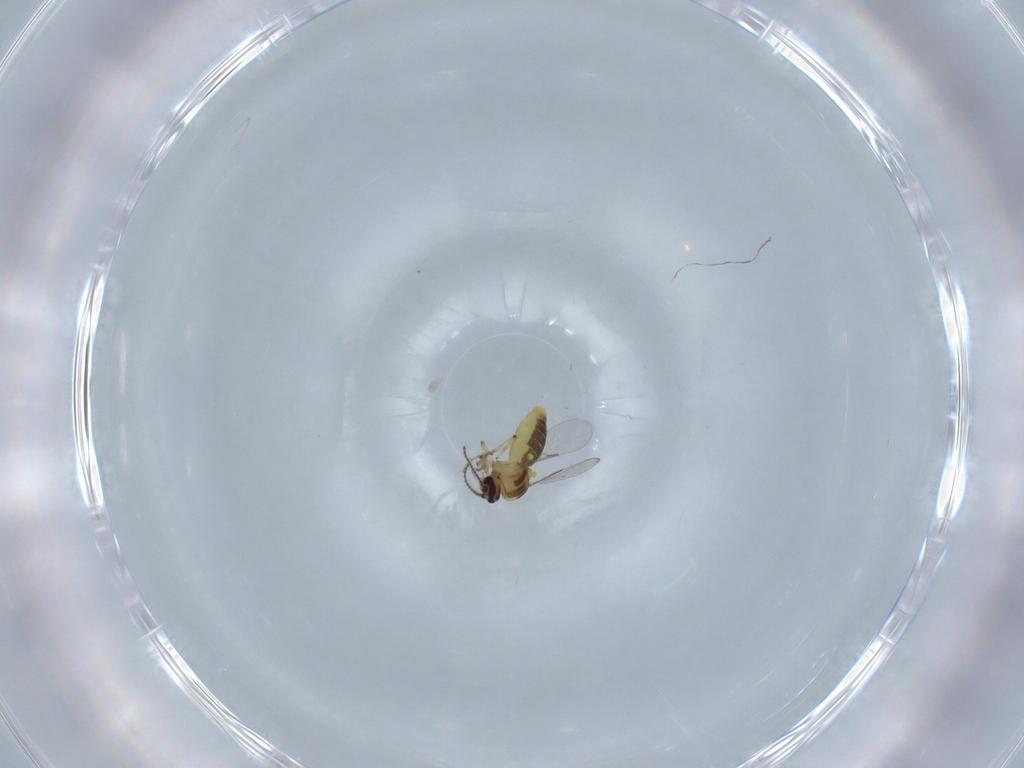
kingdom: Animalia
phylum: Arthropoda
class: Insecta
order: Diptera
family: Ceratopogonidae
